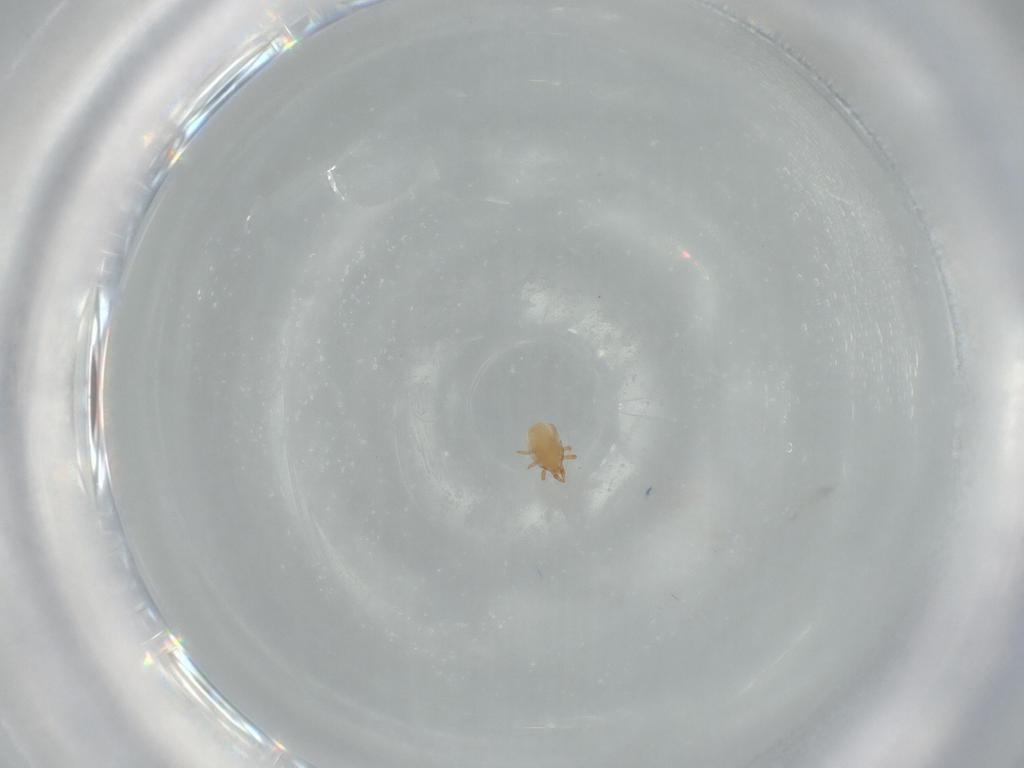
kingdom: Animalia
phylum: Arthropoda
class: Arachnida
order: Mesostigmata
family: Dinychidae
